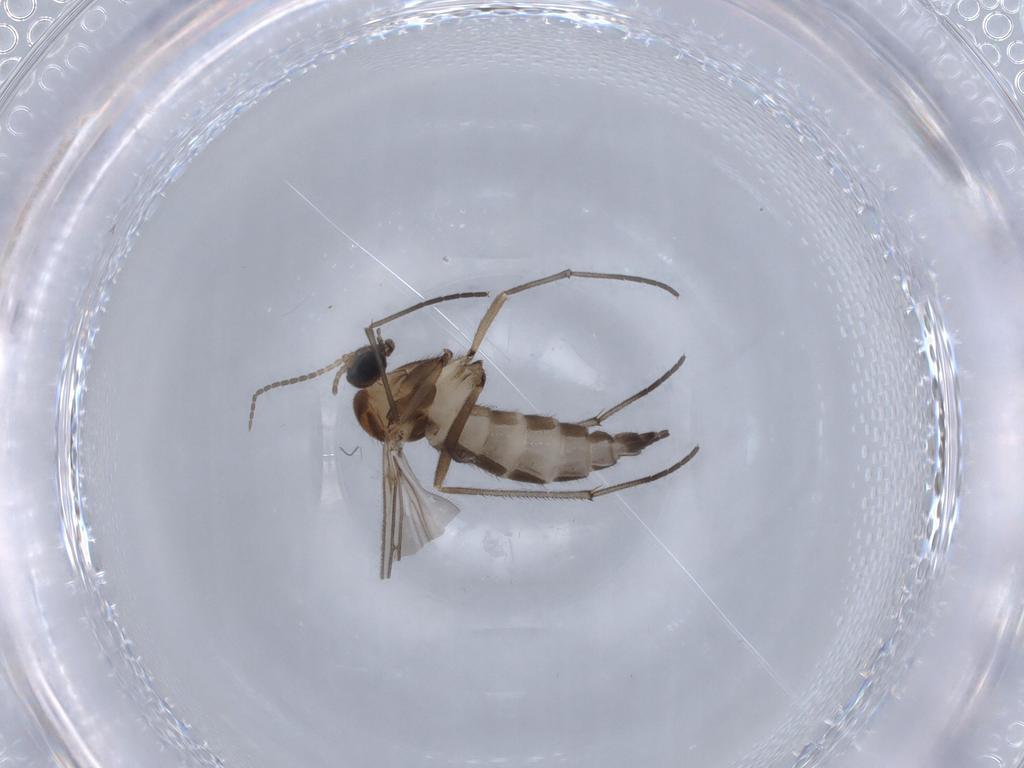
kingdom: Animalia
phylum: Arthropoda
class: Insecta
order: Diptera
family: Sciaridae
